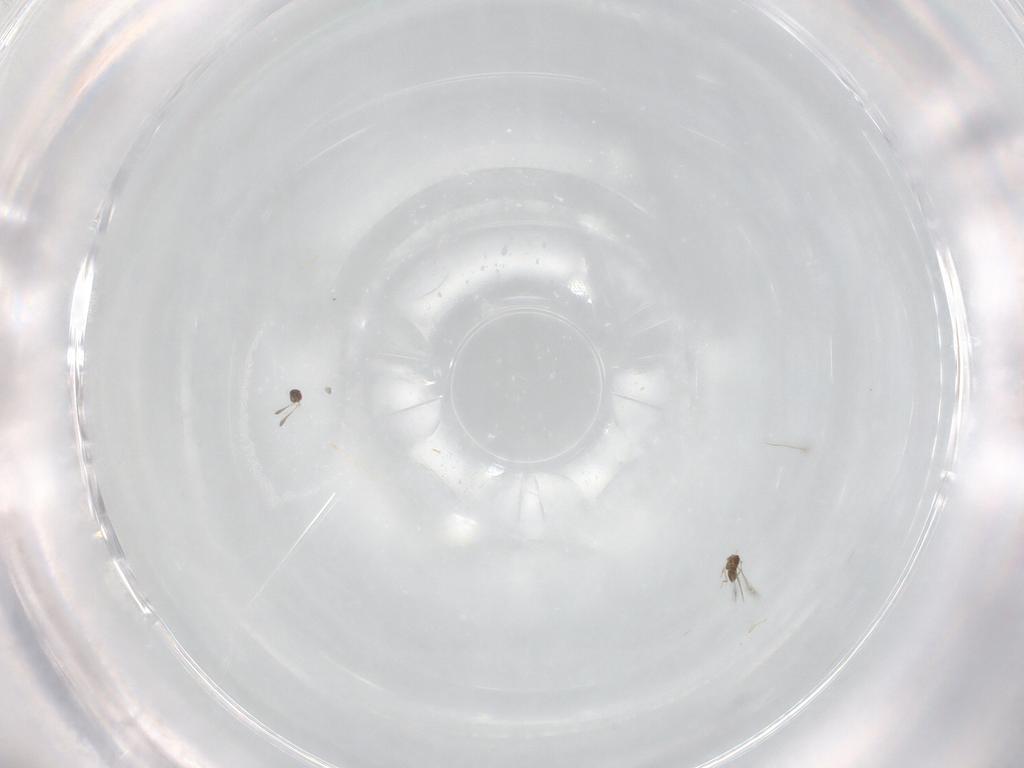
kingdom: Animalia
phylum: Arthropoda
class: Insecta
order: Hymenoptera
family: Mymaridae
